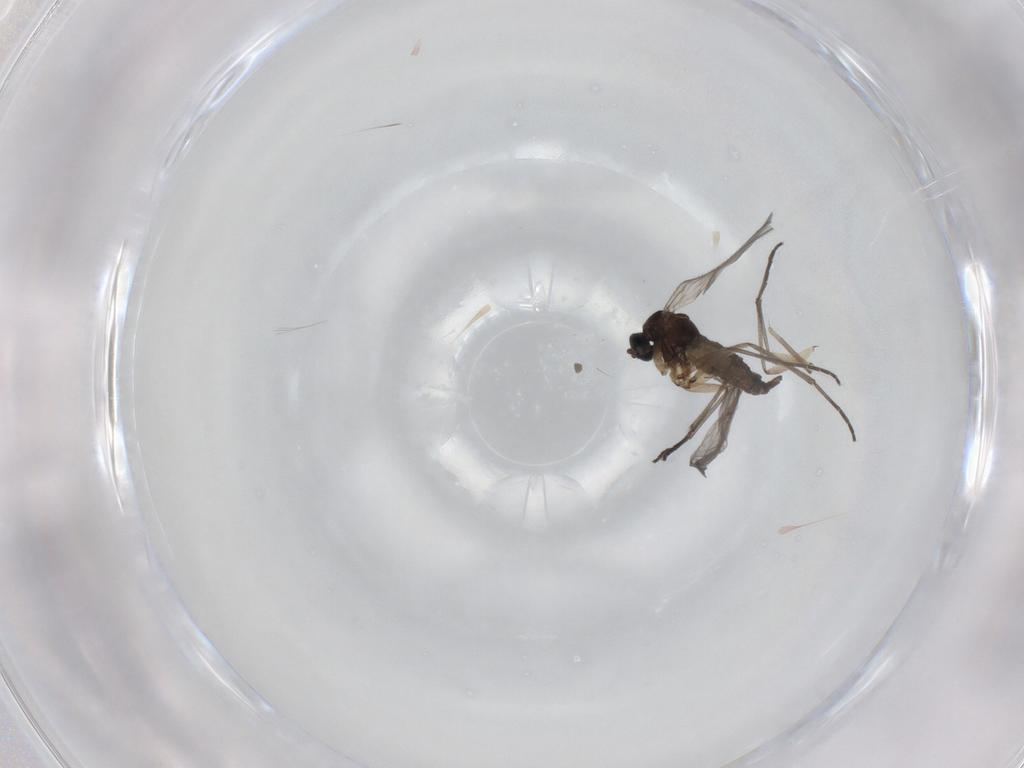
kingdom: Animalia
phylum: Arthropoda
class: Insecta
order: Diptera
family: Sciaridae
